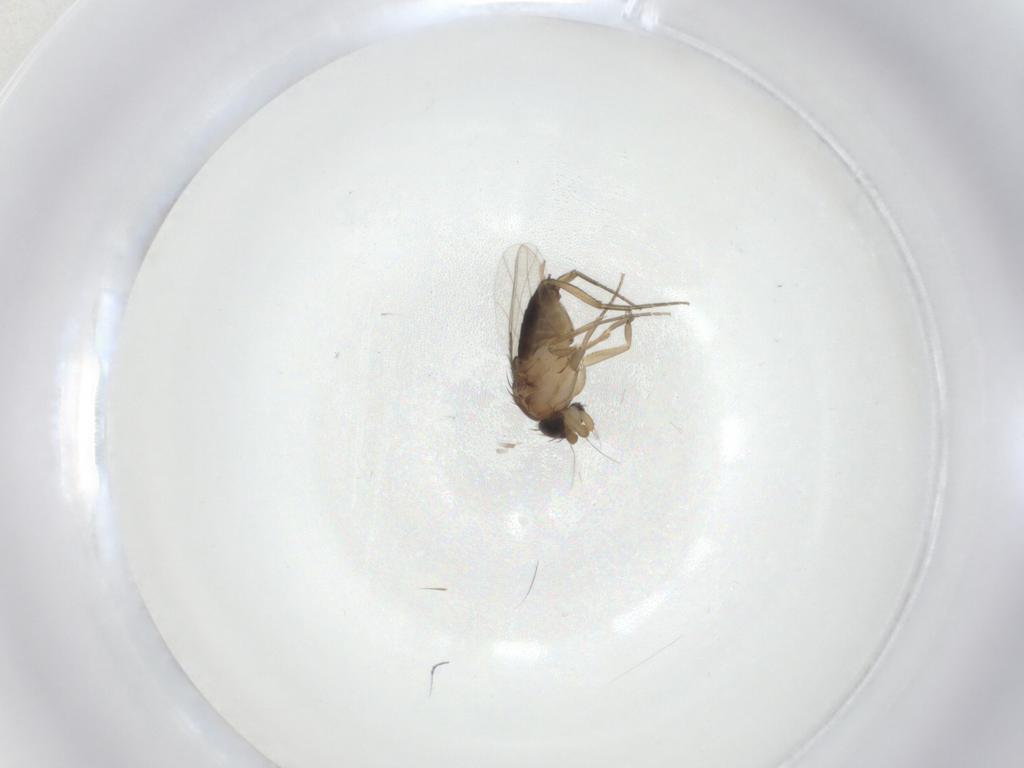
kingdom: Animalia
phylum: Arthropoda
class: Insecta
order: Diptera
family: Phoridae
